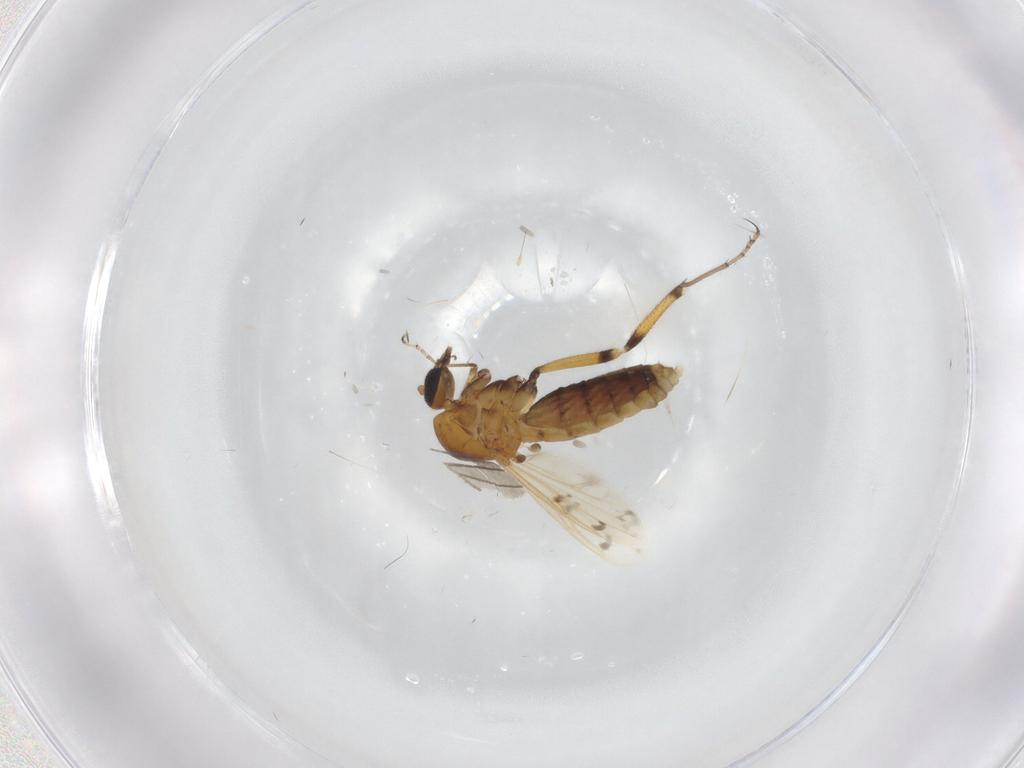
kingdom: Animalia
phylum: Arthropoda
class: Insecta
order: Diptera
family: Ceratopogonidae
